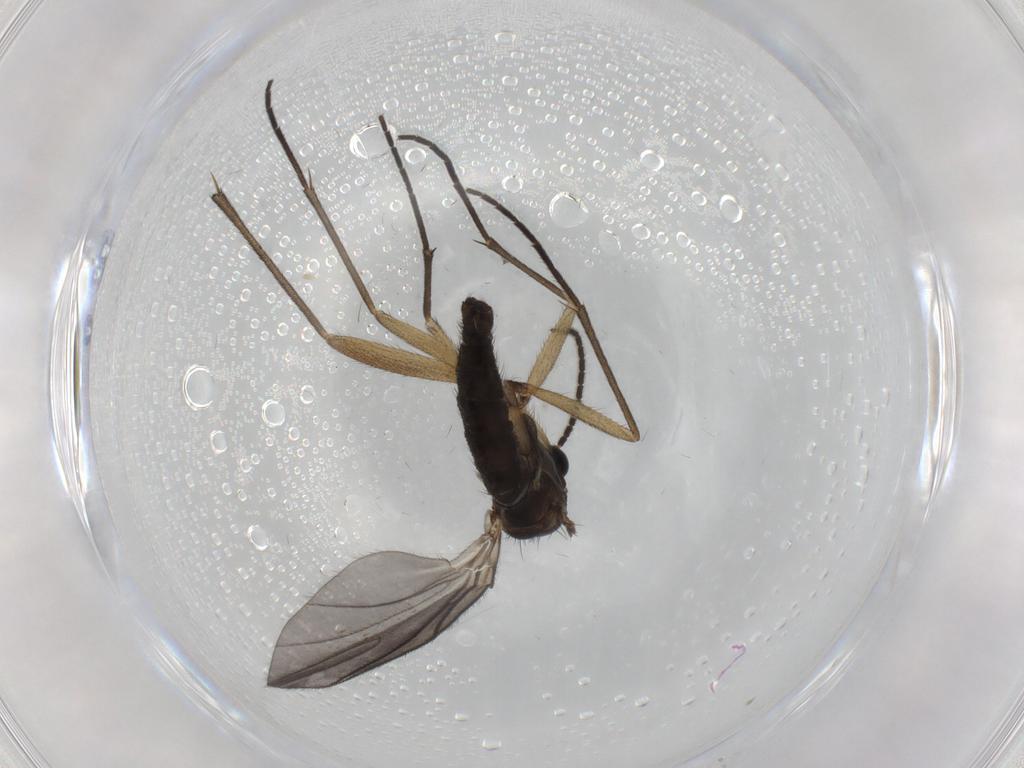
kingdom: Animalia
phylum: Arthropoda
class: Insecta
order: Diptera
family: Sciaridae
